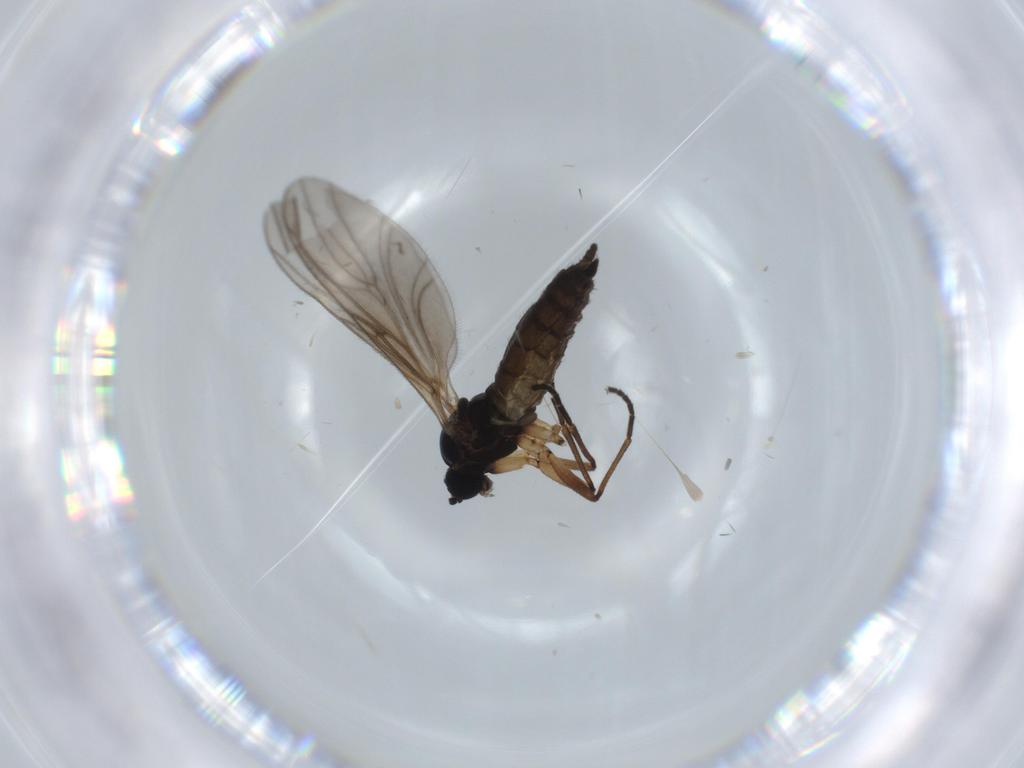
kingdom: Animalia
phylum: Arthropoda
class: Insecta
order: Diptera
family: Sciaridae
